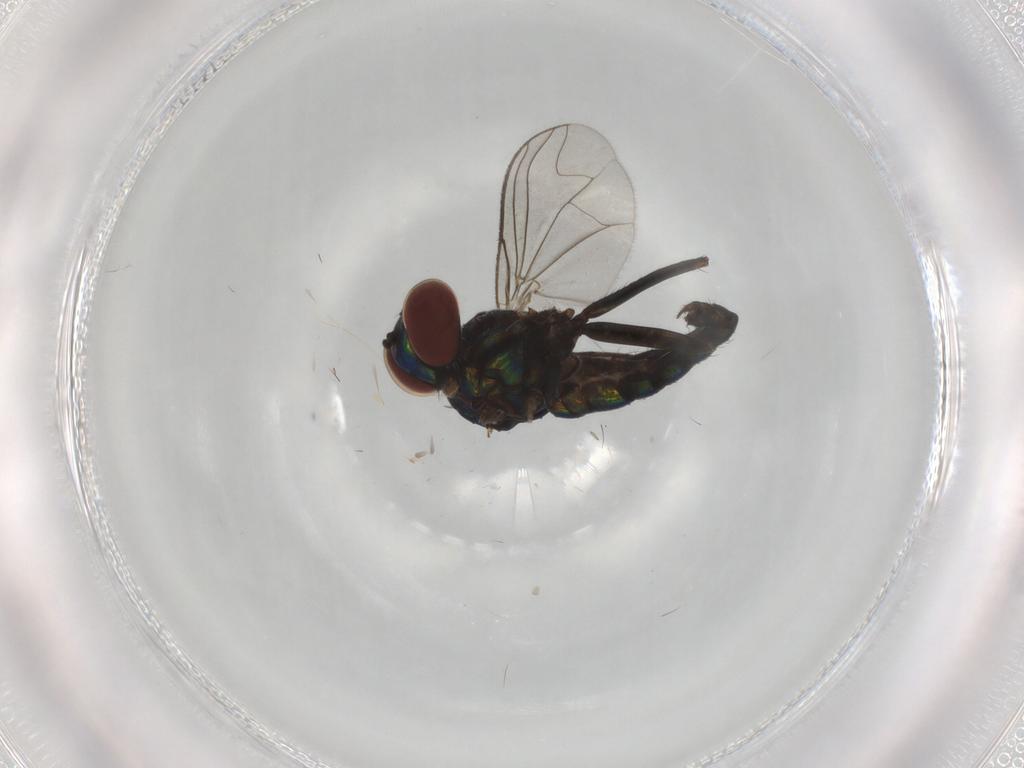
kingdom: Animalia
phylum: Arthropoda
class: Insecta
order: Diptera
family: Dolichopodidae
